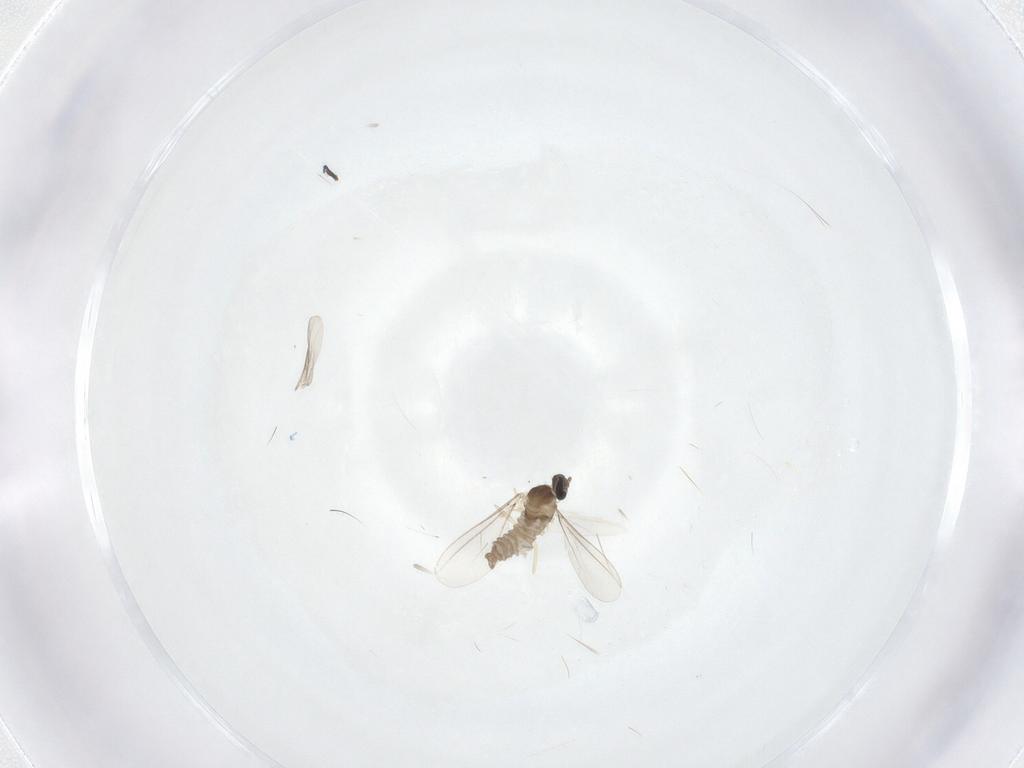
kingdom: Animalia
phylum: Arthropoda
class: Insecta
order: Diptera
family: Cecidomyiidae
